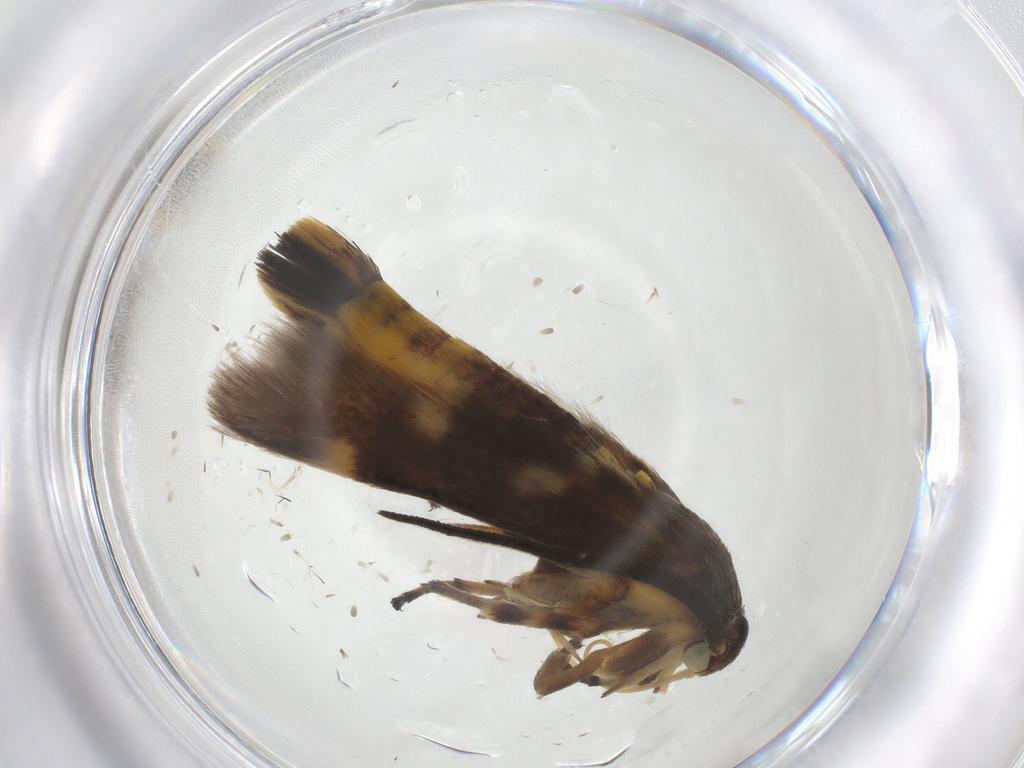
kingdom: Animalia
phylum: Arthropoda
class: Insecta
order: Lepidoptera
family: Scythrididae
